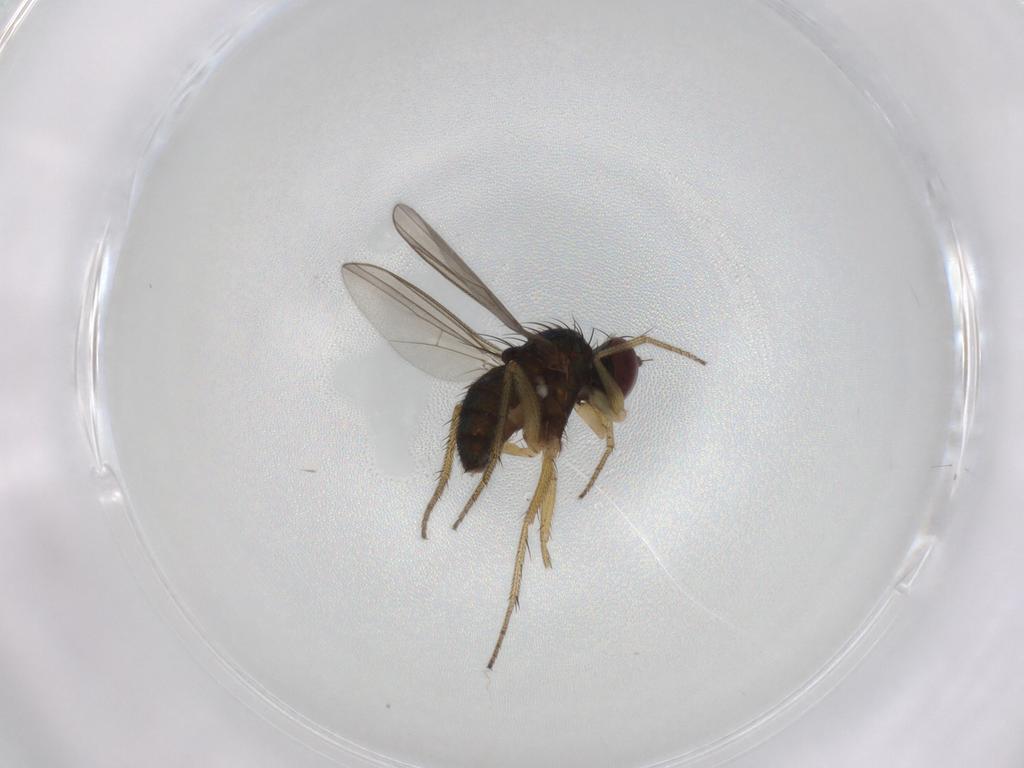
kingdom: Animalia
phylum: Arthropoda
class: Insecta
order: Diptera
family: Dolichopodidae
